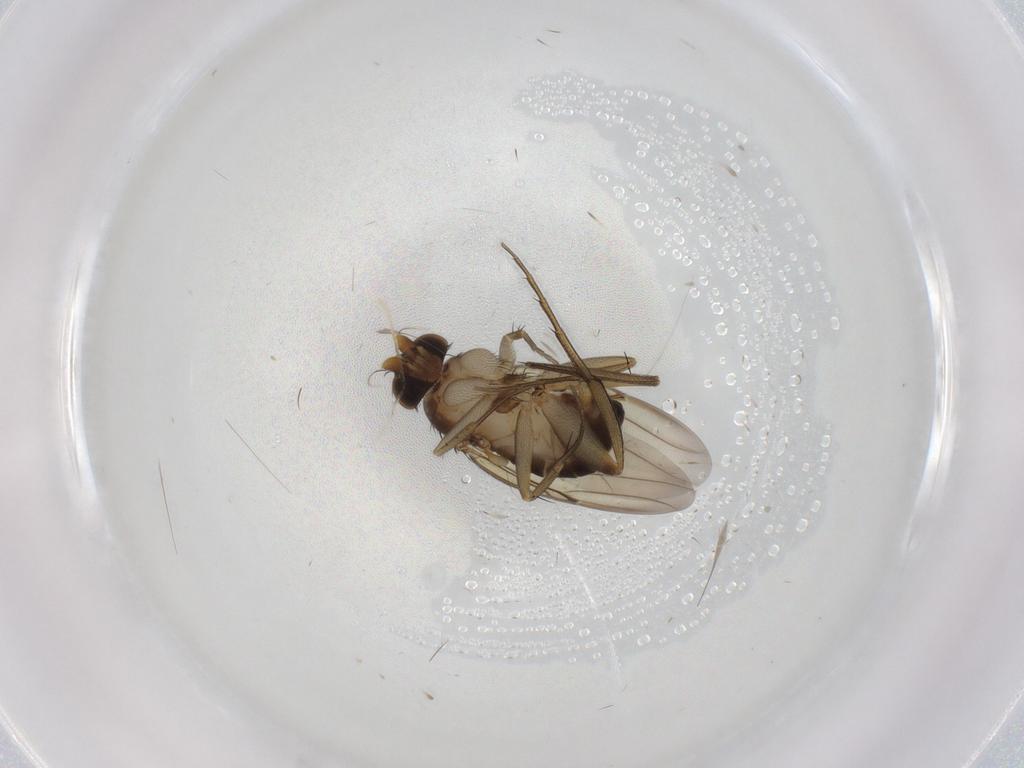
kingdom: Animalia
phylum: Arthropoda
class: Insecta
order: Diptera
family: Phoridae
